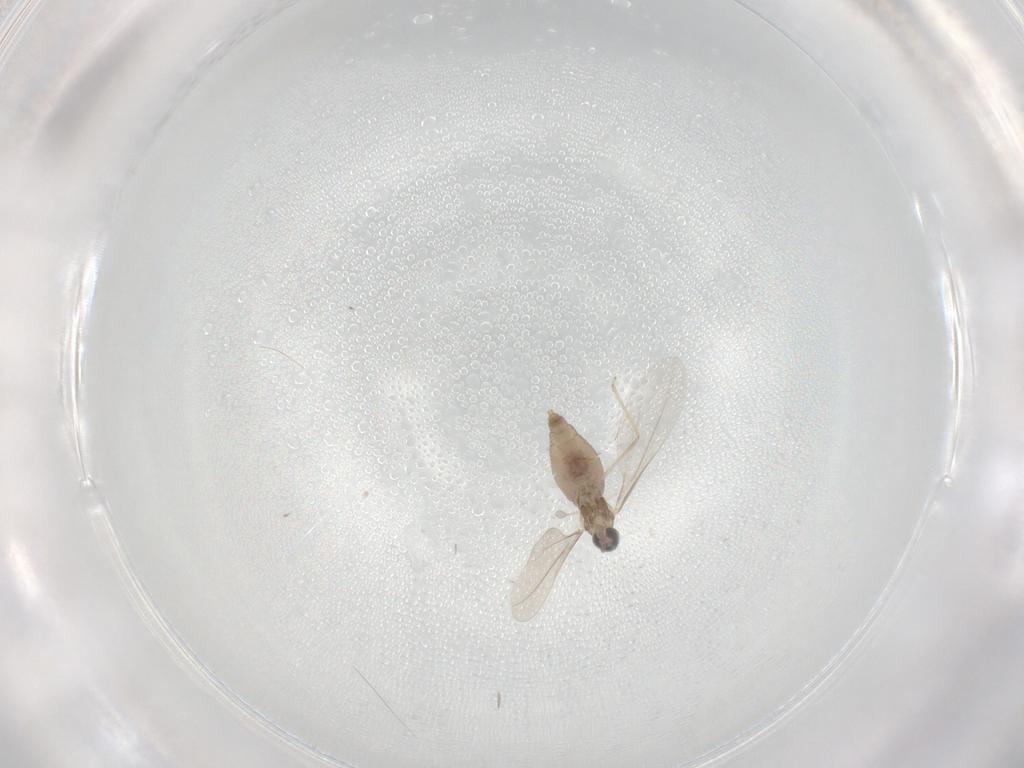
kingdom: Animalia
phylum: Arthropoda
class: Insecta
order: Diptera
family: Cecidomyiidae
